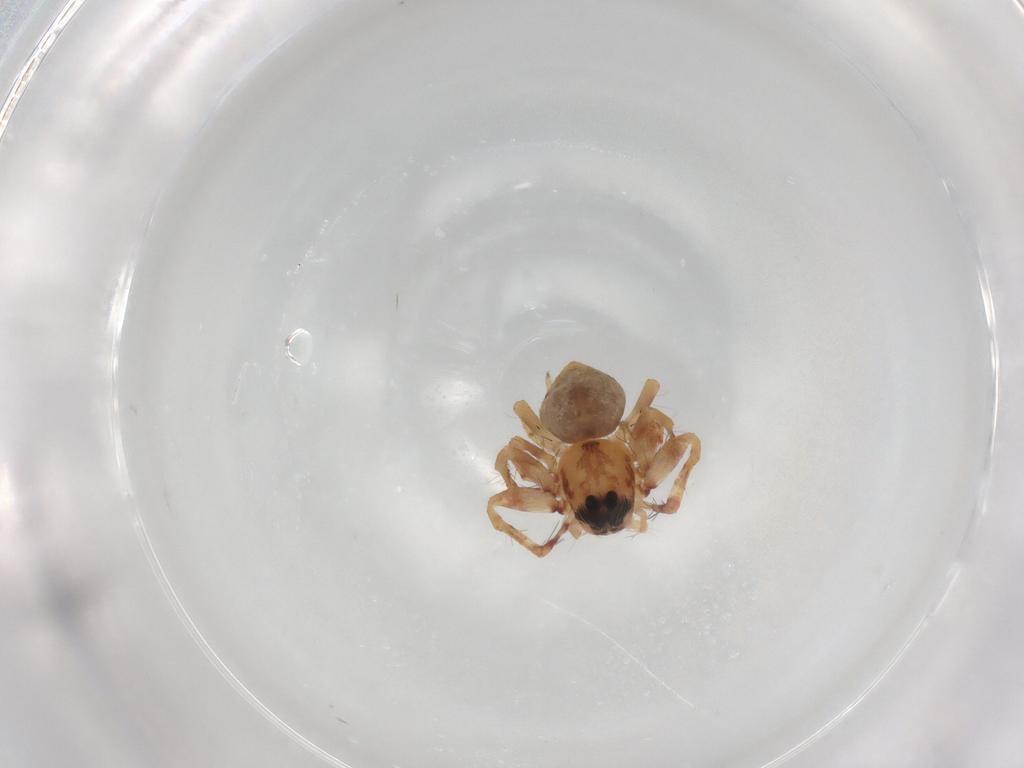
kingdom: Animalia
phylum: Arthropoda
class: Arachnida
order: Araneae
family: Oxyopidae
